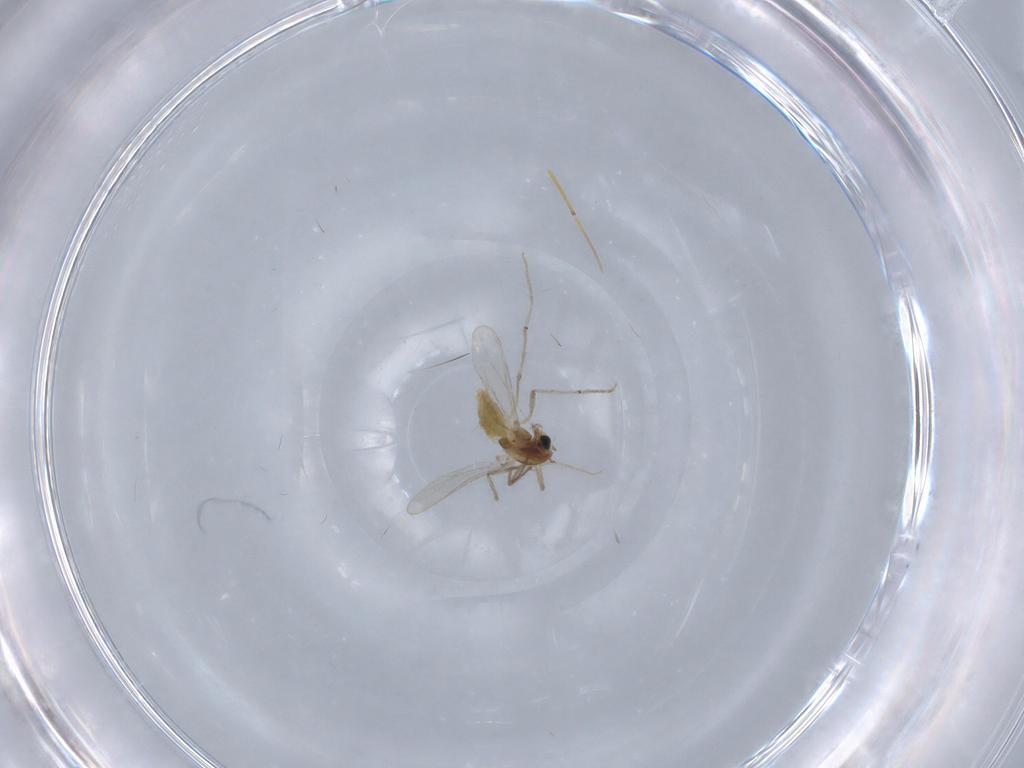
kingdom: Animalia
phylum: Arthropoda
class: Insecta
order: Diptera
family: Chironomidae
